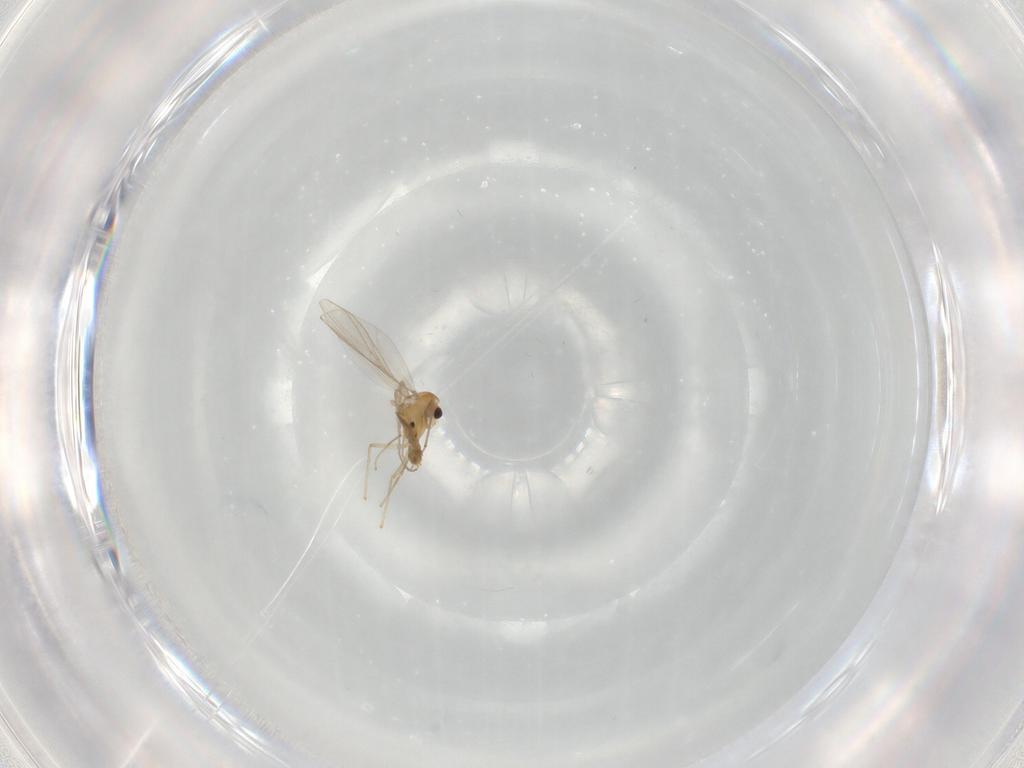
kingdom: Animalia
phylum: Arthropoda
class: Insecta
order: Diptera
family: Chironomidae
